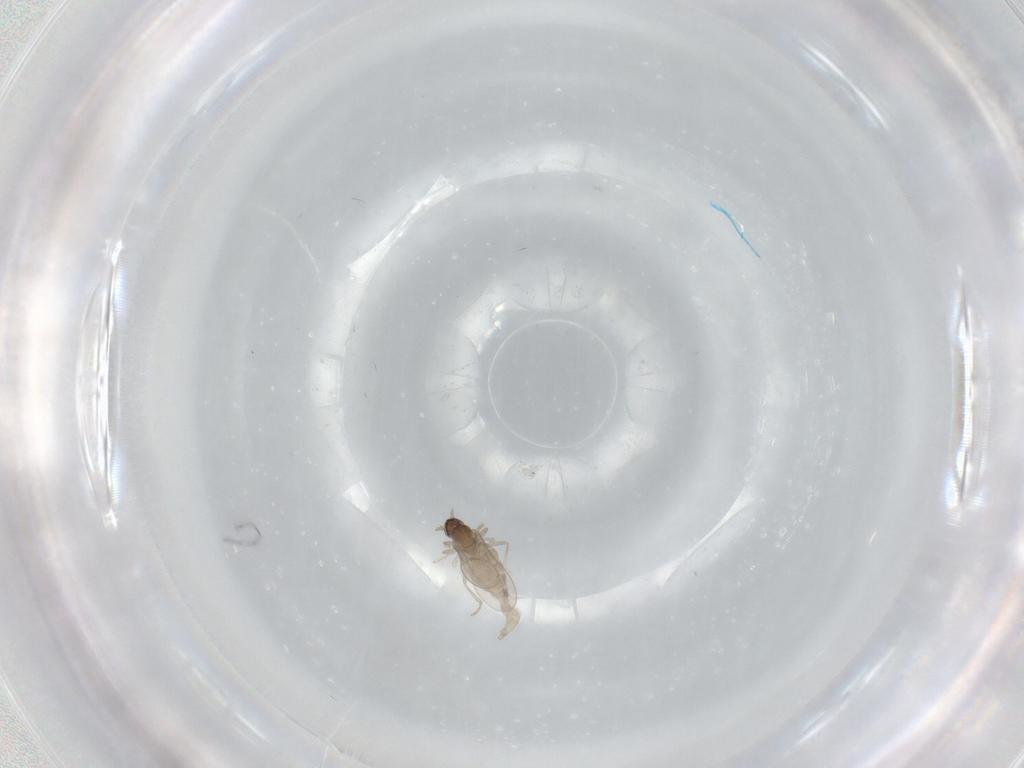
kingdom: Animalia
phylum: Arthropoda
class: Insecta
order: Diptera
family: Cecidomyiidae
